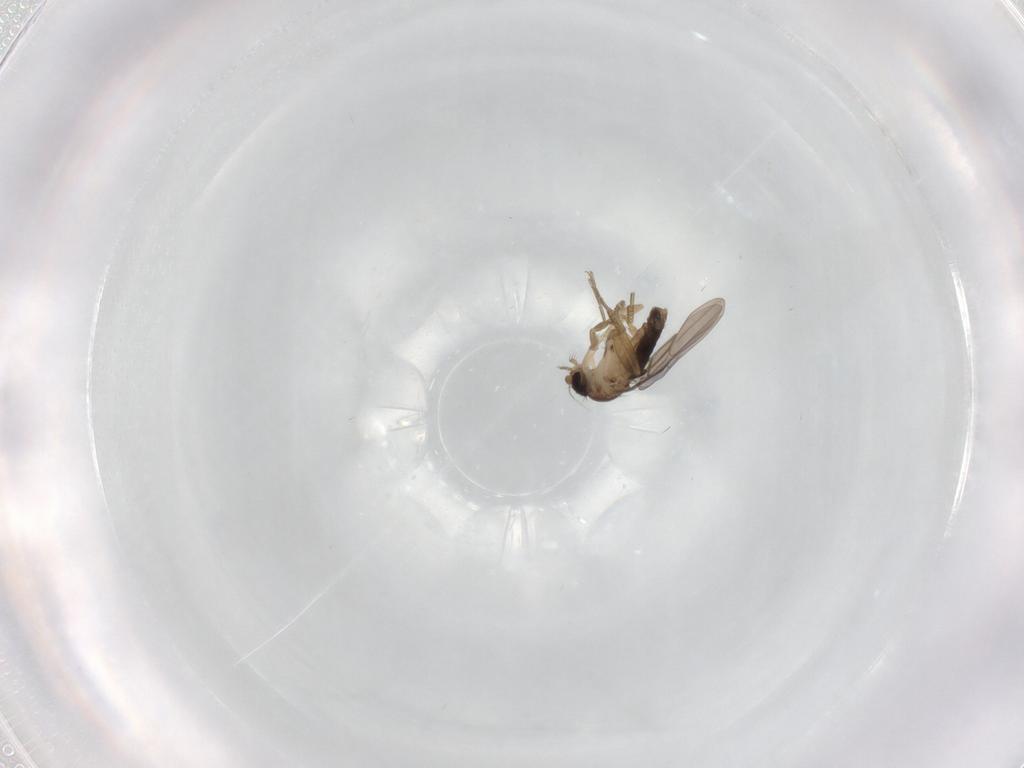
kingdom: Animalia
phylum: Arthropoda
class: Insecta
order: Diptera
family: Phoridae
